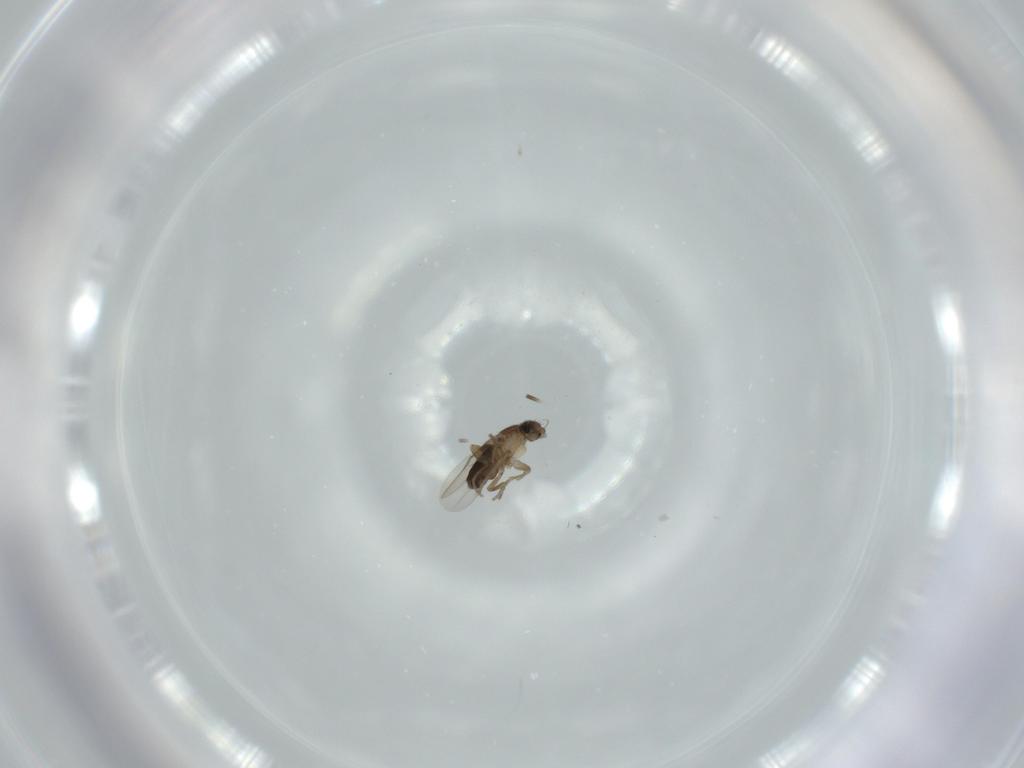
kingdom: Animalia
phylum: Arthropoda
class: Insecta
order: Diptera
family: Phoridae
